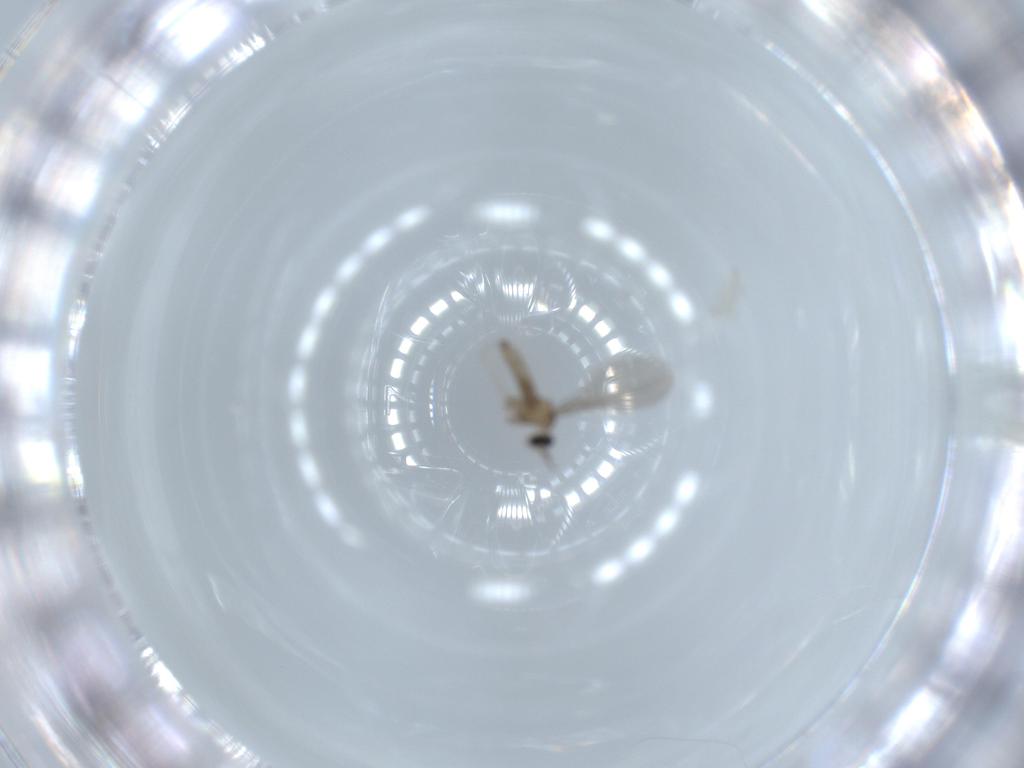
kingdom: Animalia
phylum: Arthropoda
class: Insecta
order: Diptera
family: Cecidomyiidae
